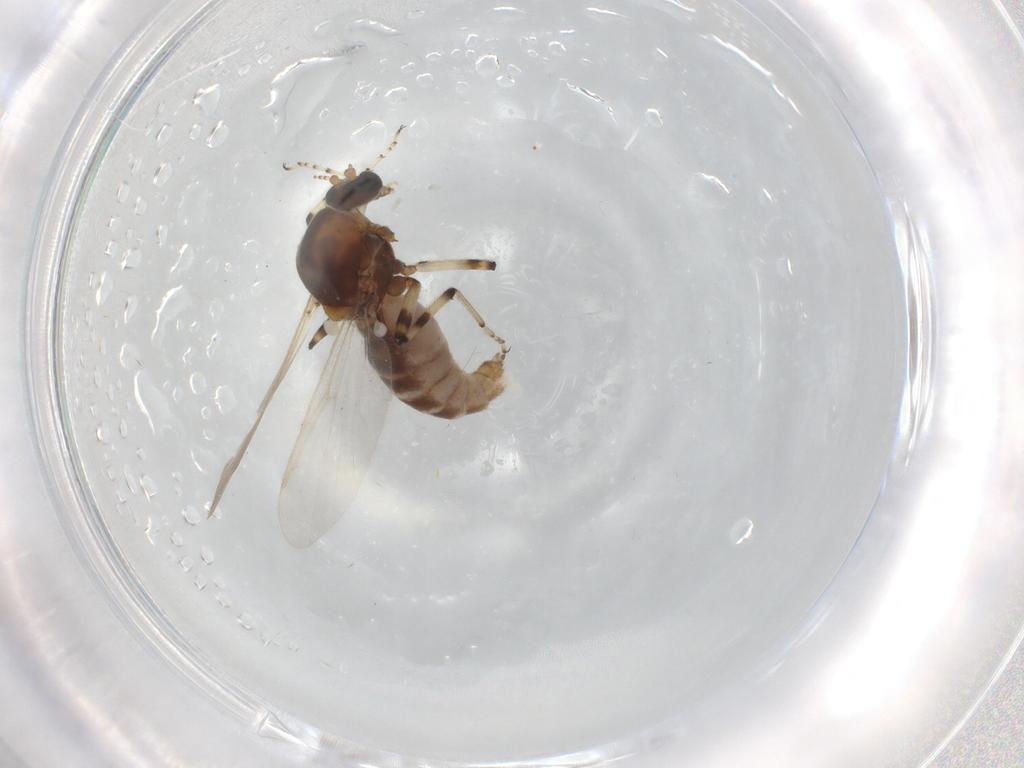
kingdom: Animalia
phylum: Arthropoda
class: Insecta
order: Diptera
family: Ceratopogonidae
